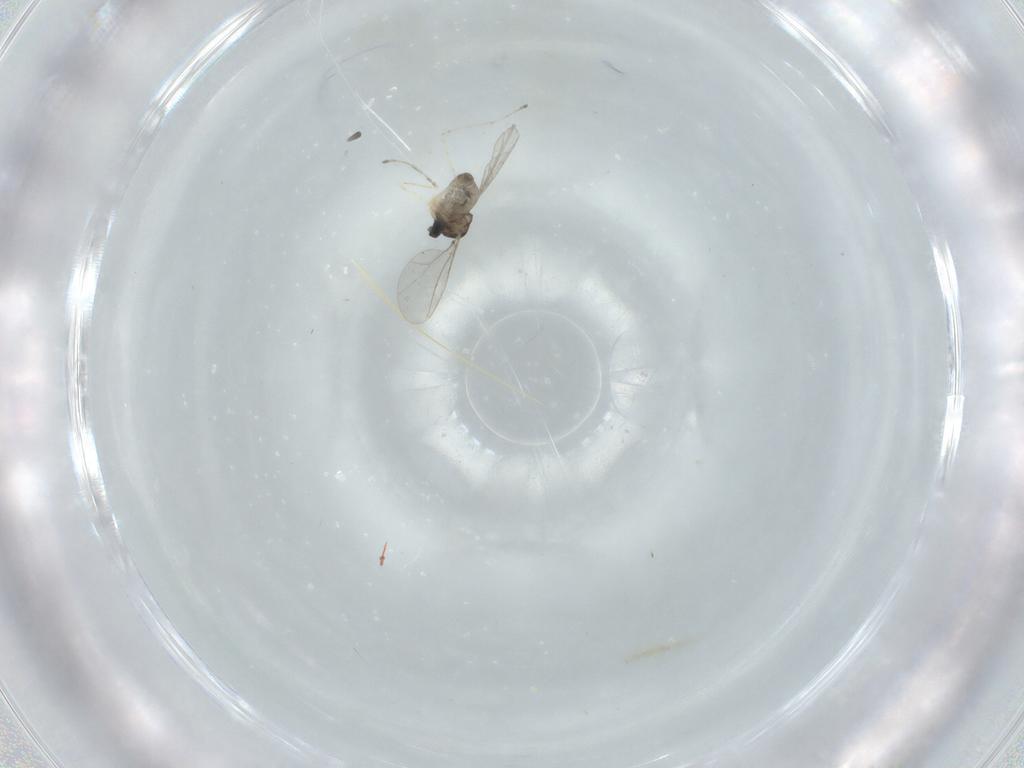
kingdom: Animalia
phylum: Arthropoda
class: Insecta
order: Diptera
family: Cecidomyiidae
